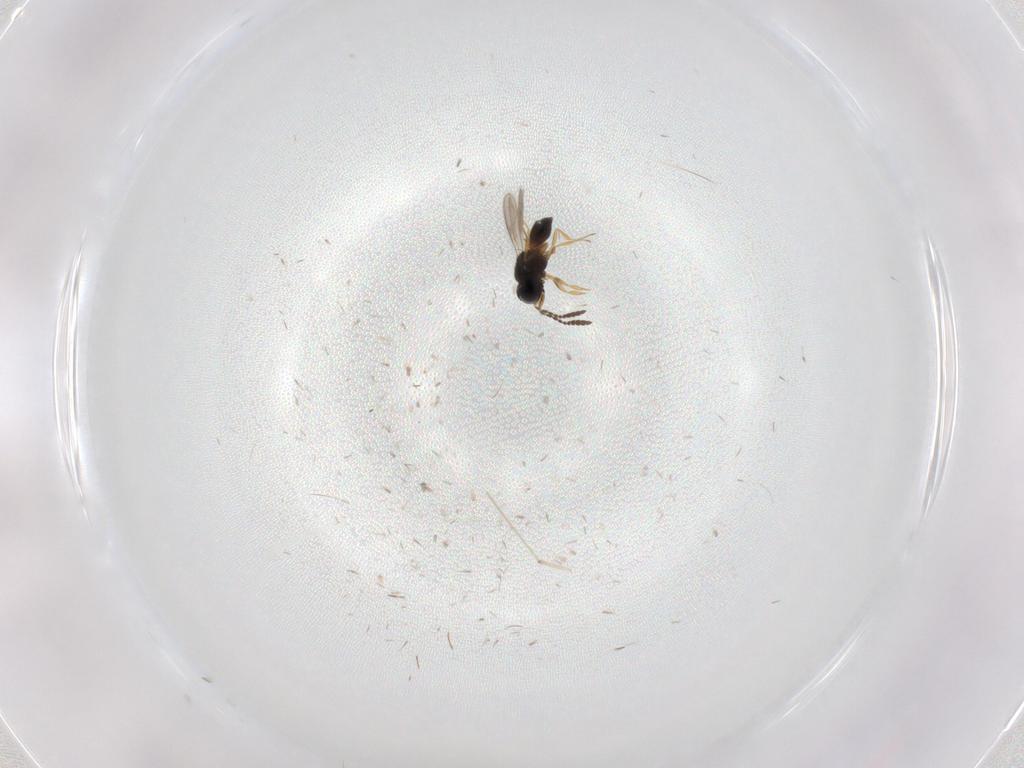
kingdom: Animalia
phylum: Arthropoda
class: Insecta
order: Hymenoptera
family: Scelionidae
